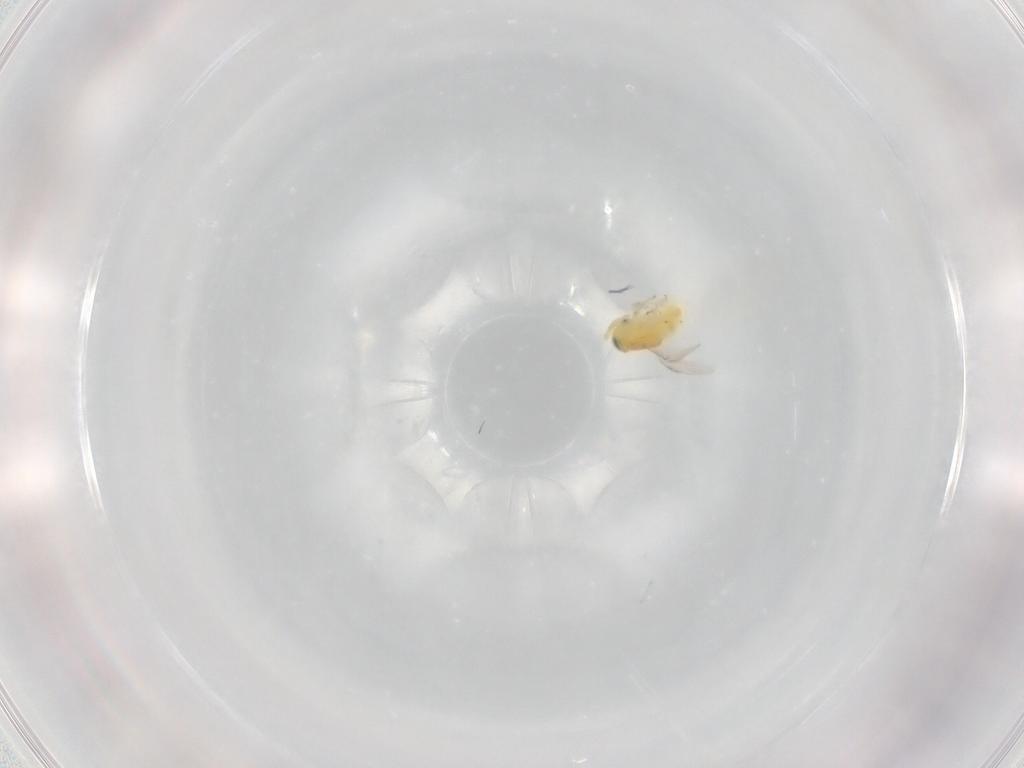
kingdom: Animalia
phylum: Arthropoda
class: Insecta
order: Hymenoptera
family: Encyrtidae
